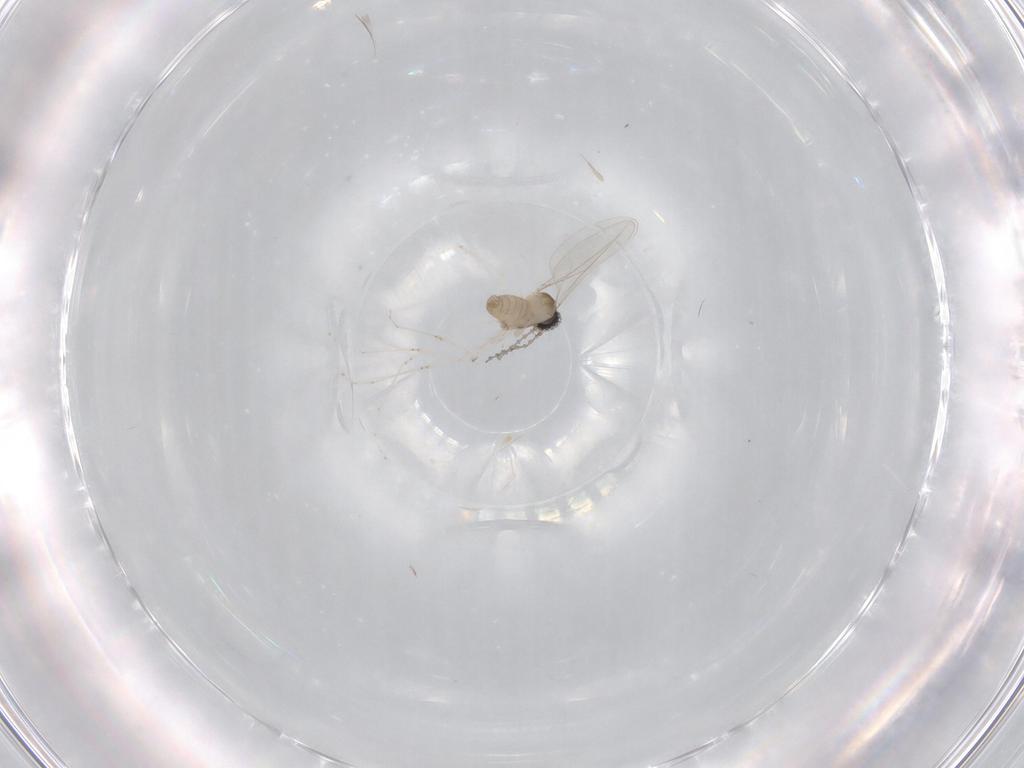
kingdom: Animalia
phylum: Arthropoda
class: Insecta
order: Diptera
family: Cecidomyiidae
